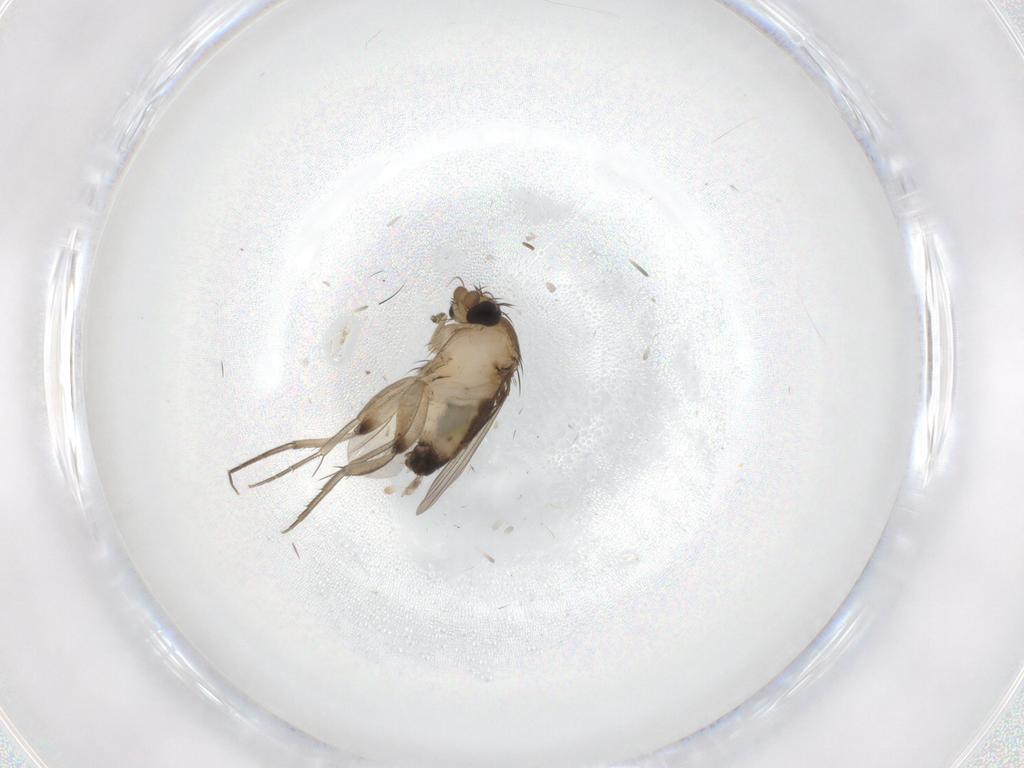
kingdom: Animalia
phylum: Arthropoda
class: Insecta
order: Diptera
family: Phoridae
